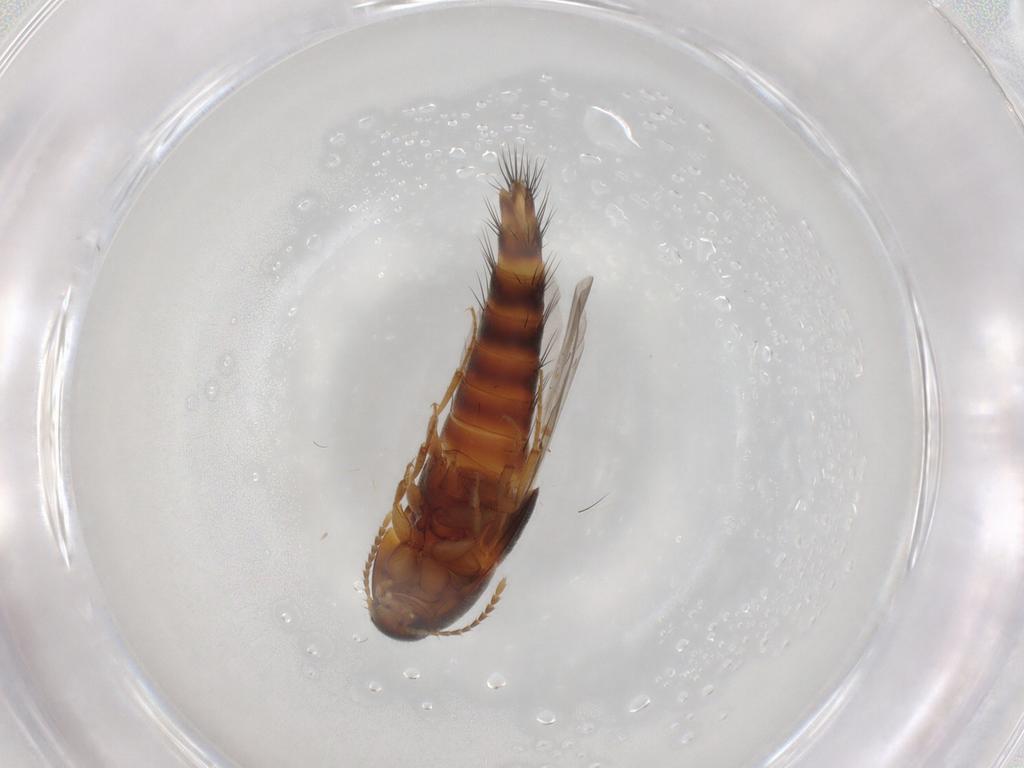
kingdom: Animalia
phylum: Arthropoda
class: Insecta
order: Coleoptera
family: Staphylinidae
